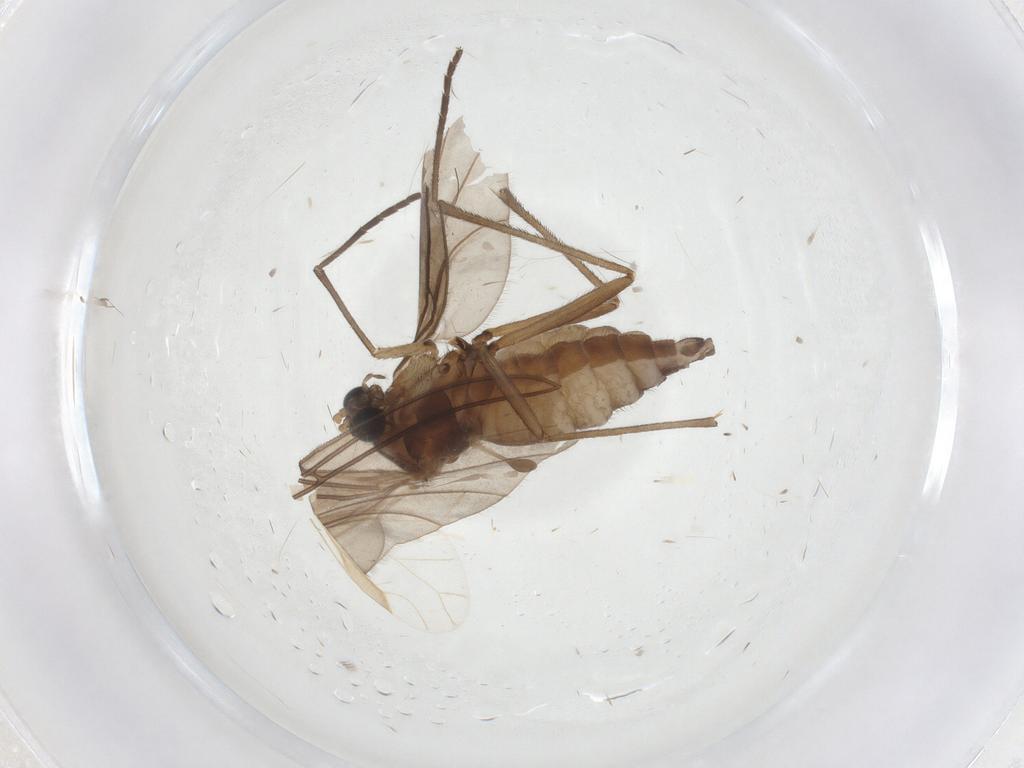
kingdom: Animalia
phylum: Arthropoda
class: Insecta
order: Diptera
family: Sciaridae
